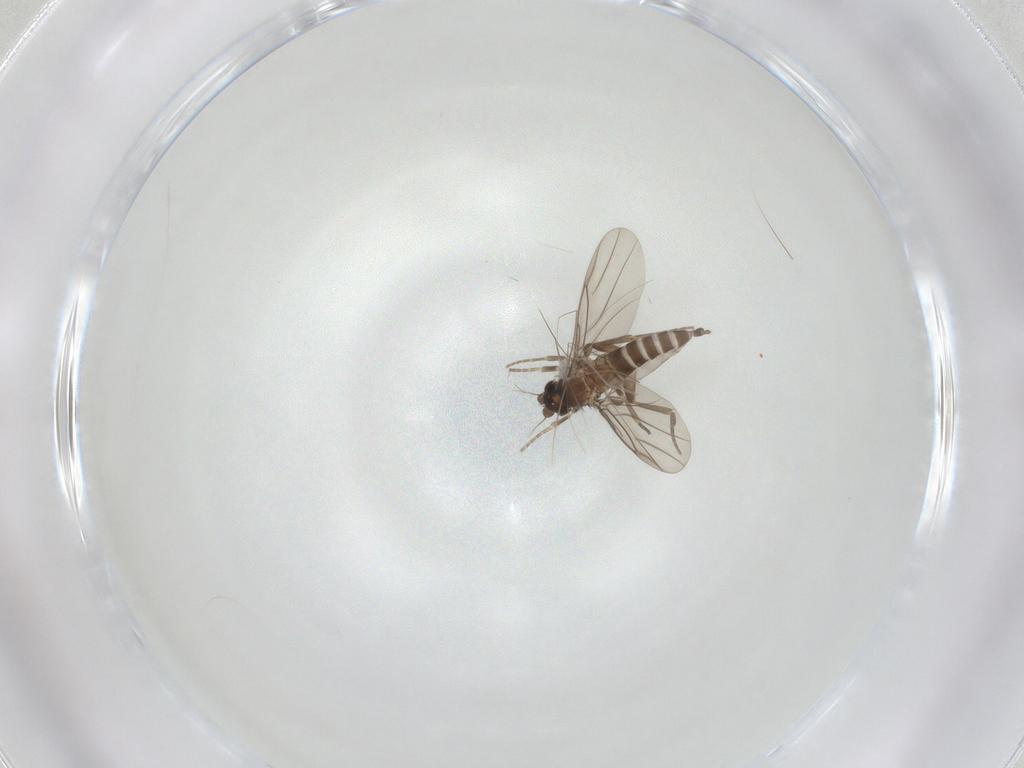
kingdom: Animalia
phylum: Arthropoda
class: Insecta
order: Diptera
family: Phoridae
